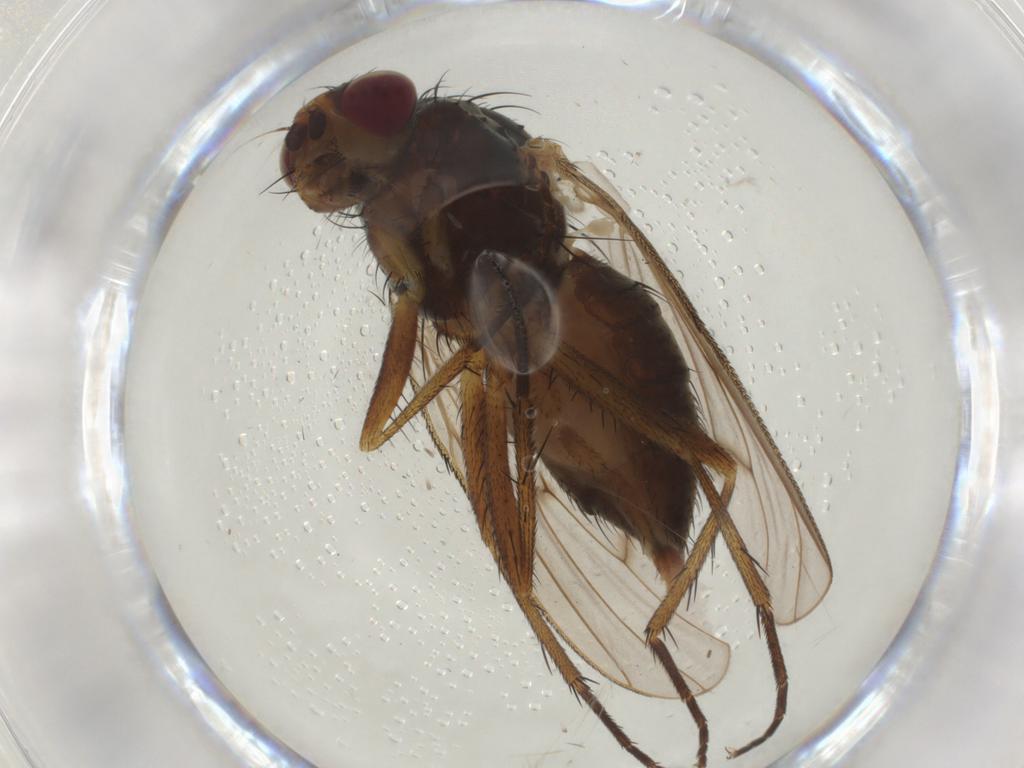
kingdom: Animalia
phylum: Arthropoda
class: Insecta
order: Diptera
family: Anthomyiidae
